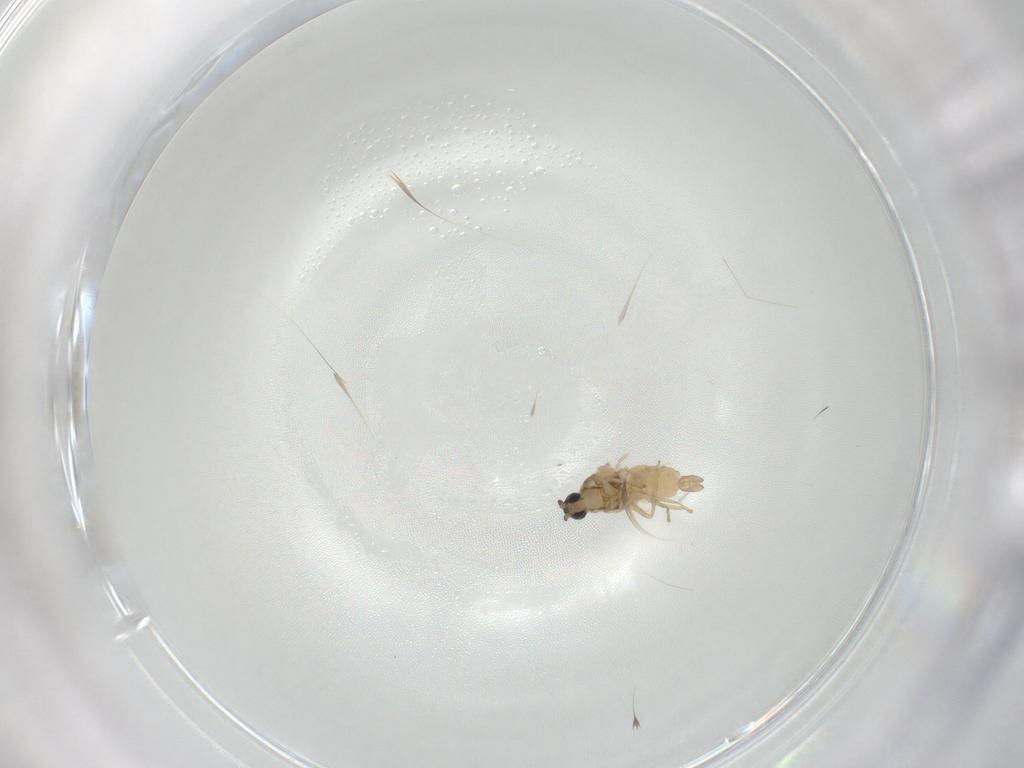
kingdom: Animalia
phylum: Arthropoda
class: Insecta
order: Diptera
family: Cecidomyiidae
